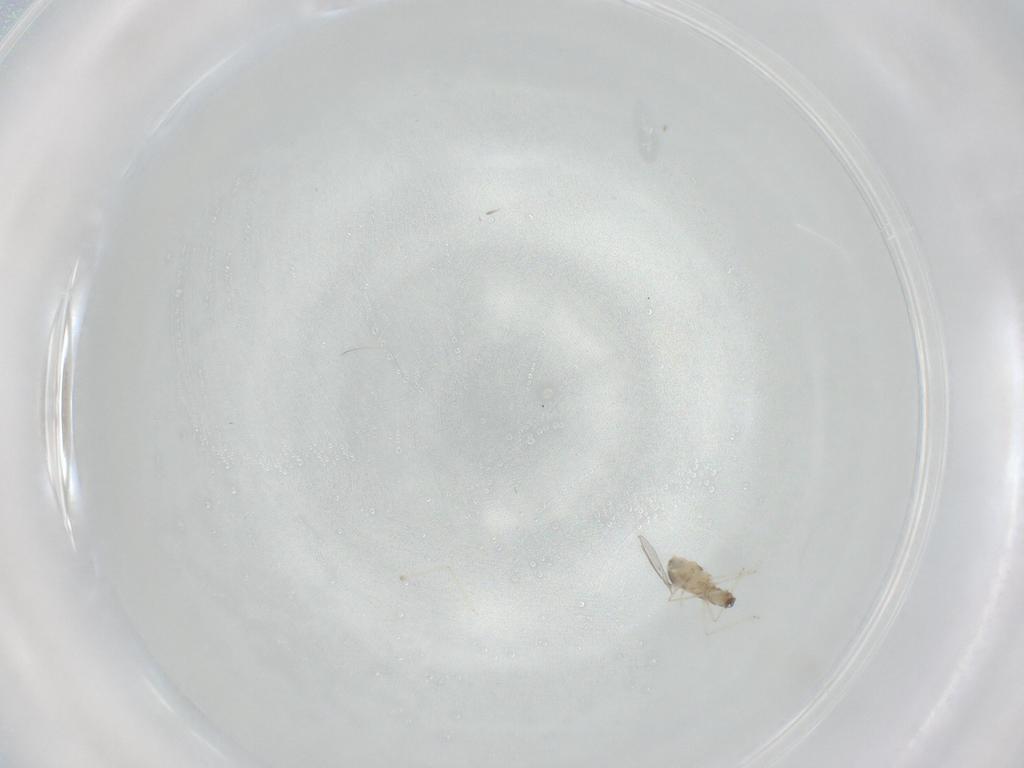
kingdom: Animalia
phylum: Arthropoda
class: Insecta
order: Diptera
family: Cecidomyiidae
